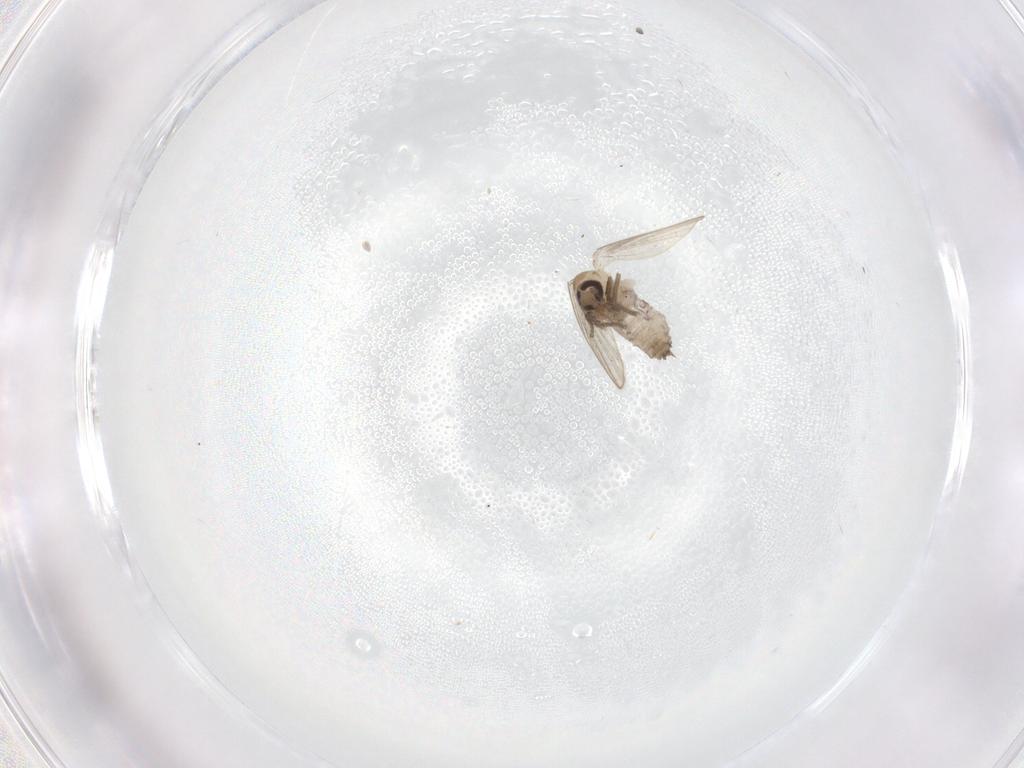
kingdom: Animalia
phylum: Arthropoda
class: Insecta
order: Diptera
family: Psychodidae
